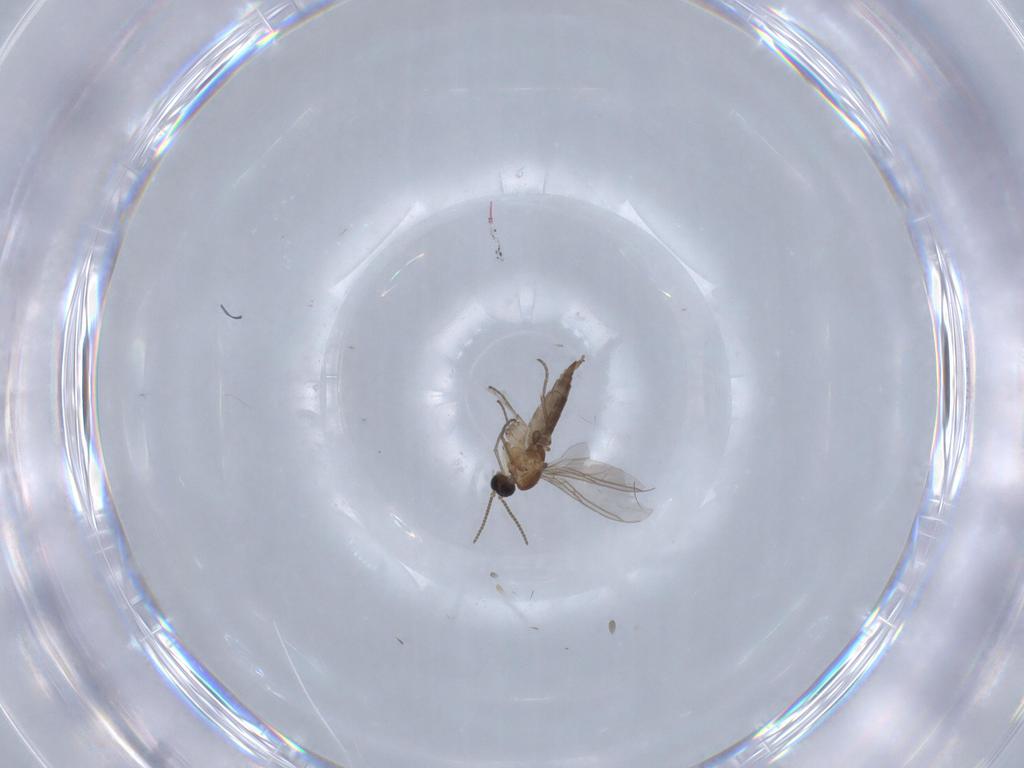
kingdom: Animalia
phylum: Arthropoda
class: Insecta
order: Diptera
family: Sciaridae
